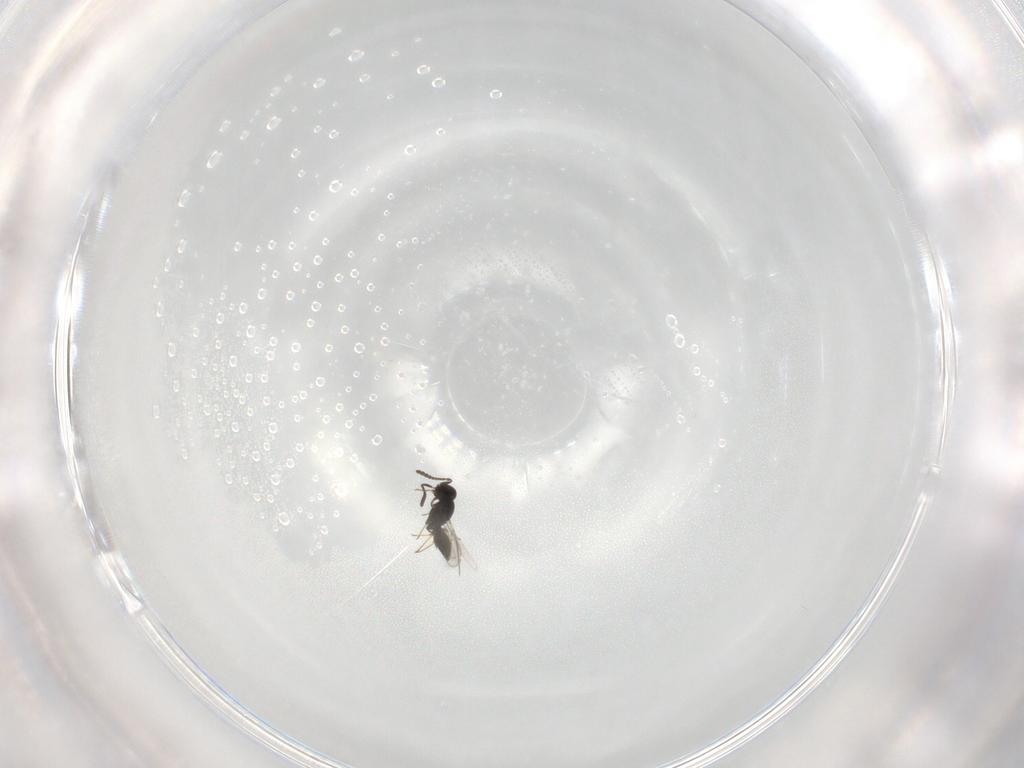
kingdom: Animalia
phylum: Arthropoda
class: Insecta
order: Hymenoptera
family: Scelionidae
